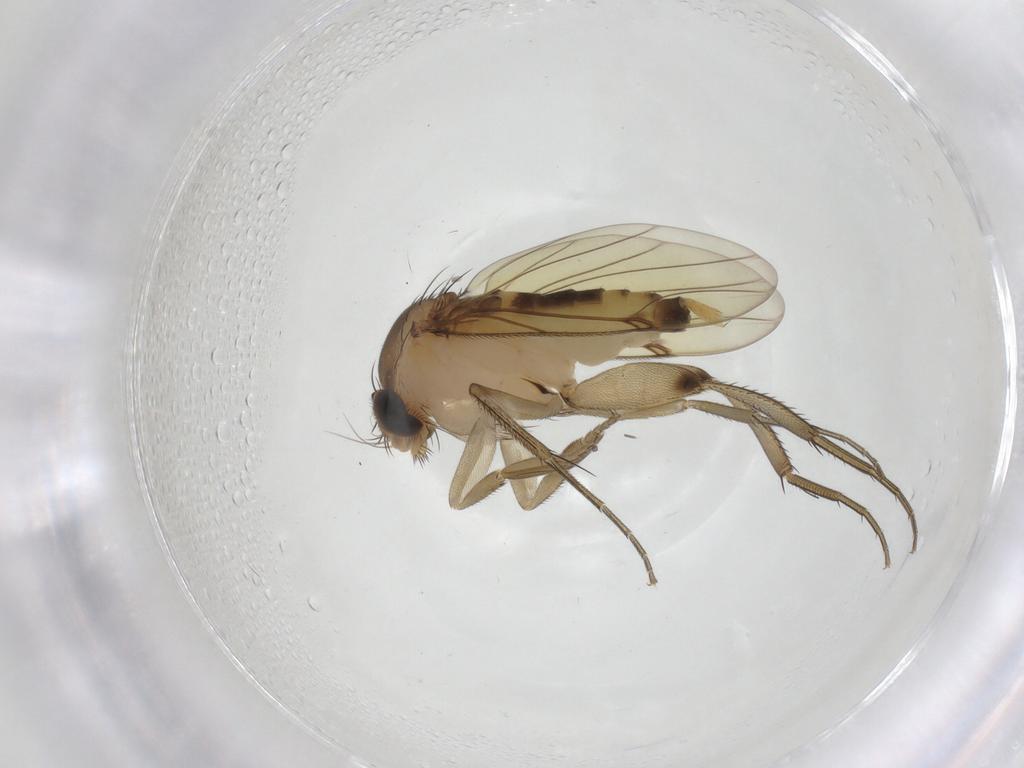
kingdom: Animalia
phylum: Arthropoda
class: Insecta
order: Diptera
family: Phoridae
